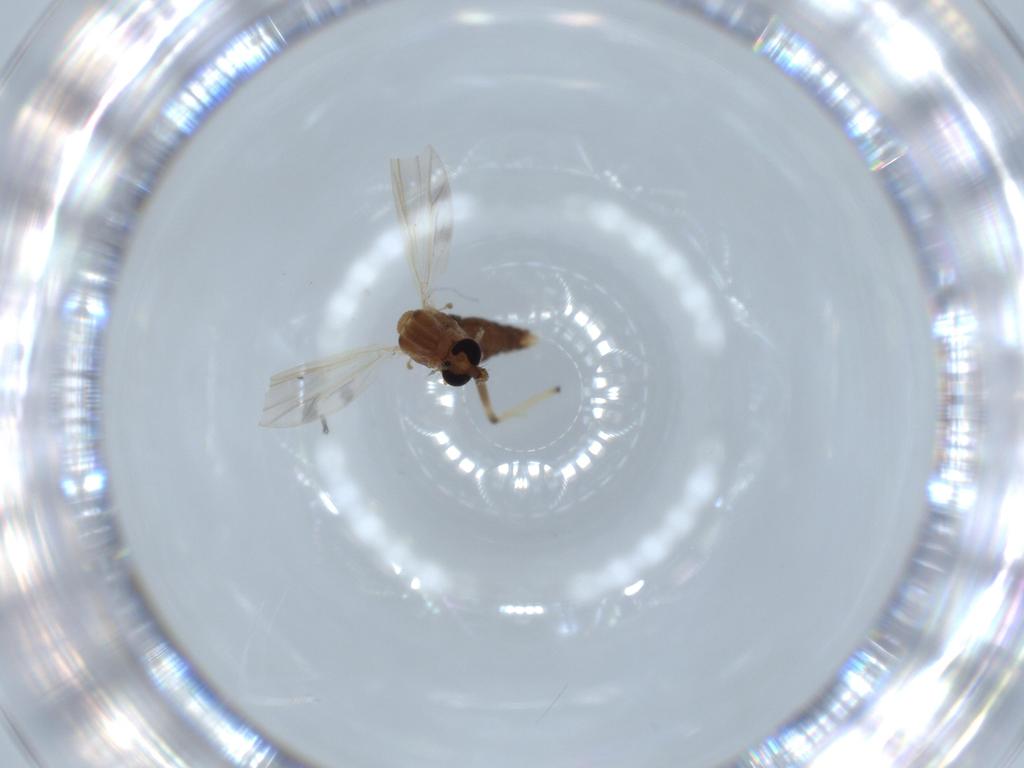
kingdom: Animalia
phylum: Arthropoda
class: Insecta
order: Diptera
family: Chironomidae
